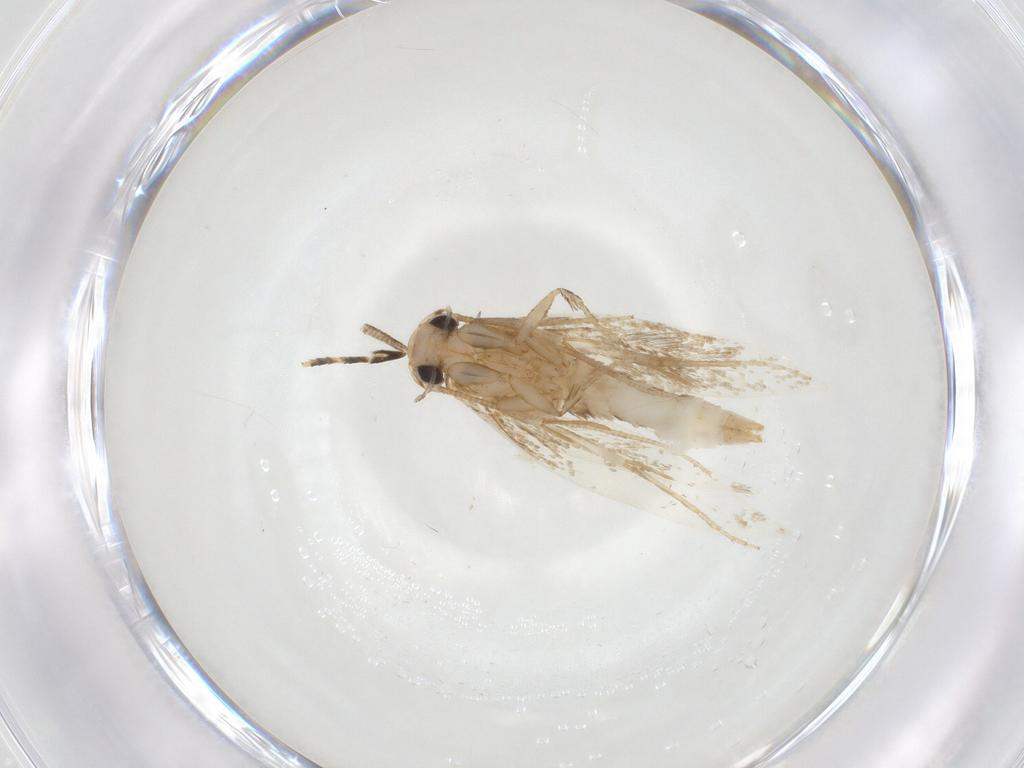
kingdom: Animalia
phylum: Arthropoda
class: Insecta
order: Lepidoptera
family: Tineidae
